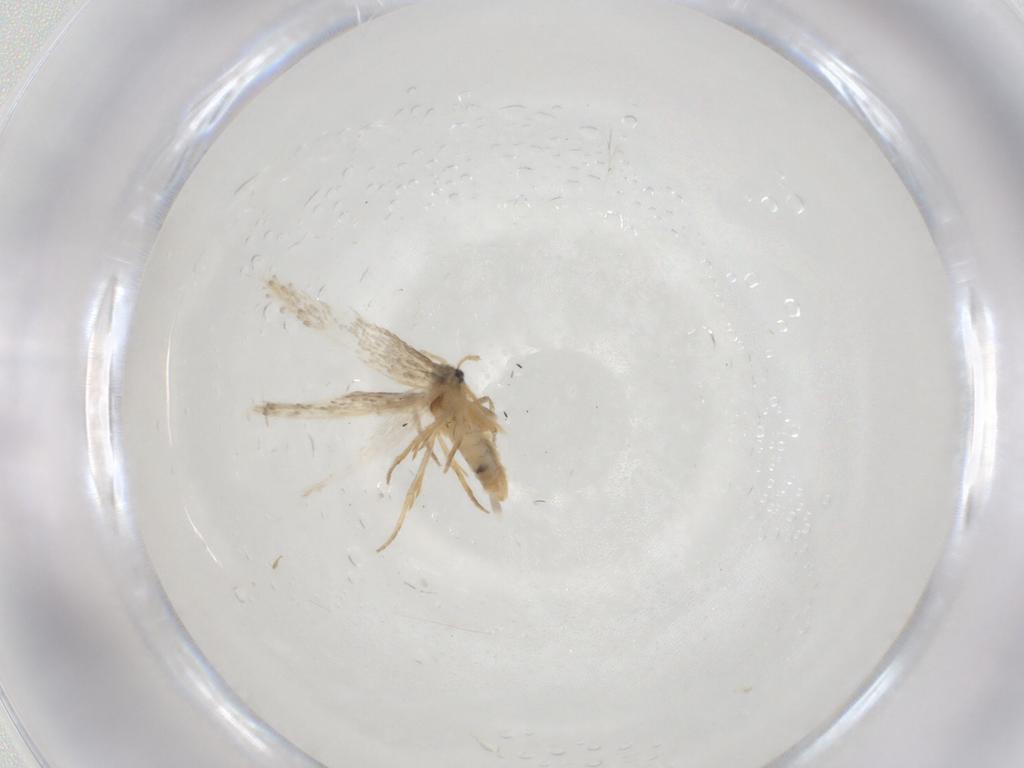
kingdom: Animalia
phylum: Arthropoda
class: Insecta
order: Lepidoptera
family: Nepticulidae
